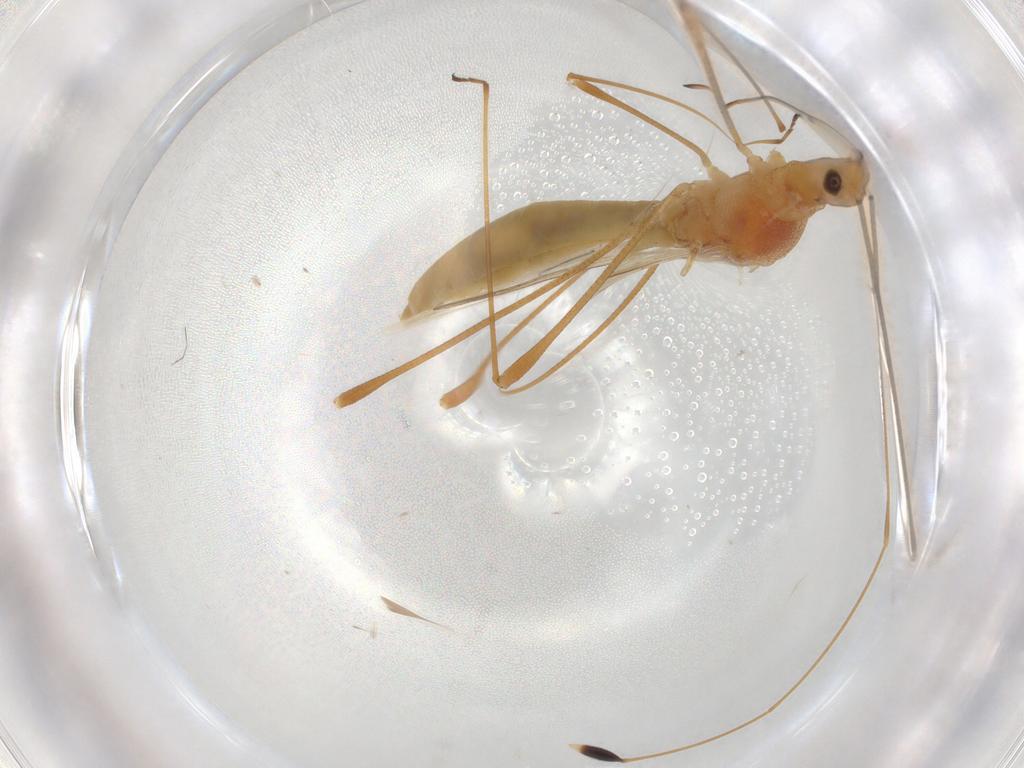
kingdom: Animalia
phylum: Arthropoda
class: Insecta
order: Hemiptera
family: Berytidae
